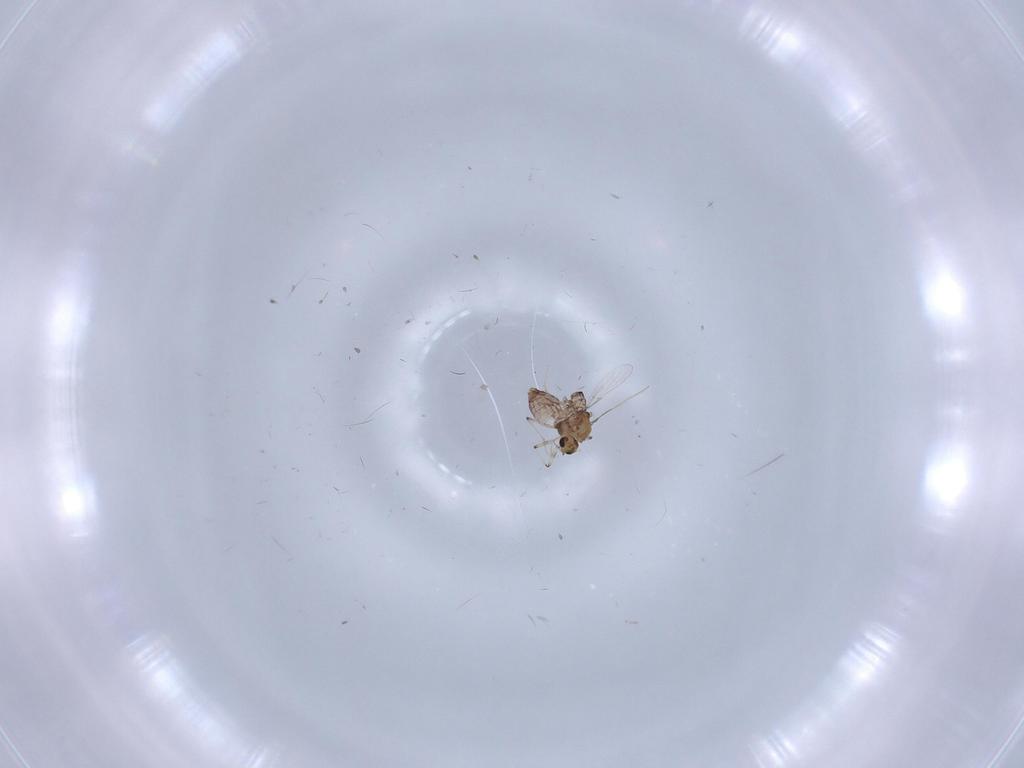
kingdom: Animalia
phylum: Arthropoda
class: Insecta
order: Diptera
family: Chironomidae
